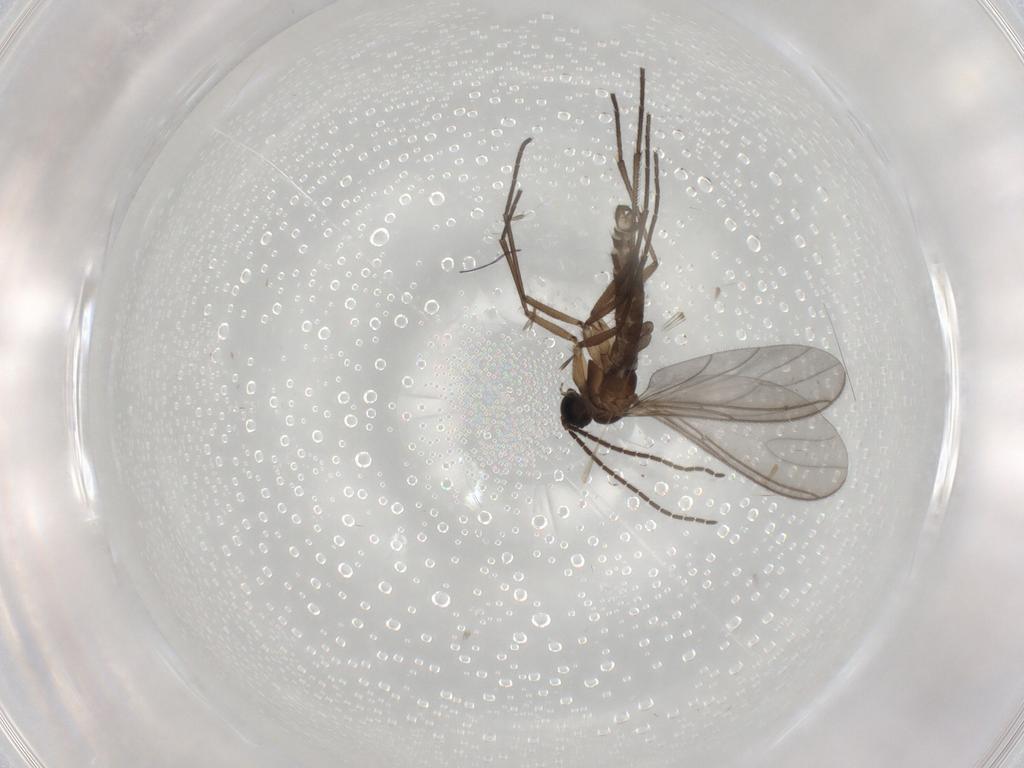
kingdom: Animalia
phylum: Arthropoda
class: Insecta
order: Diptera
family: Sciaridae
